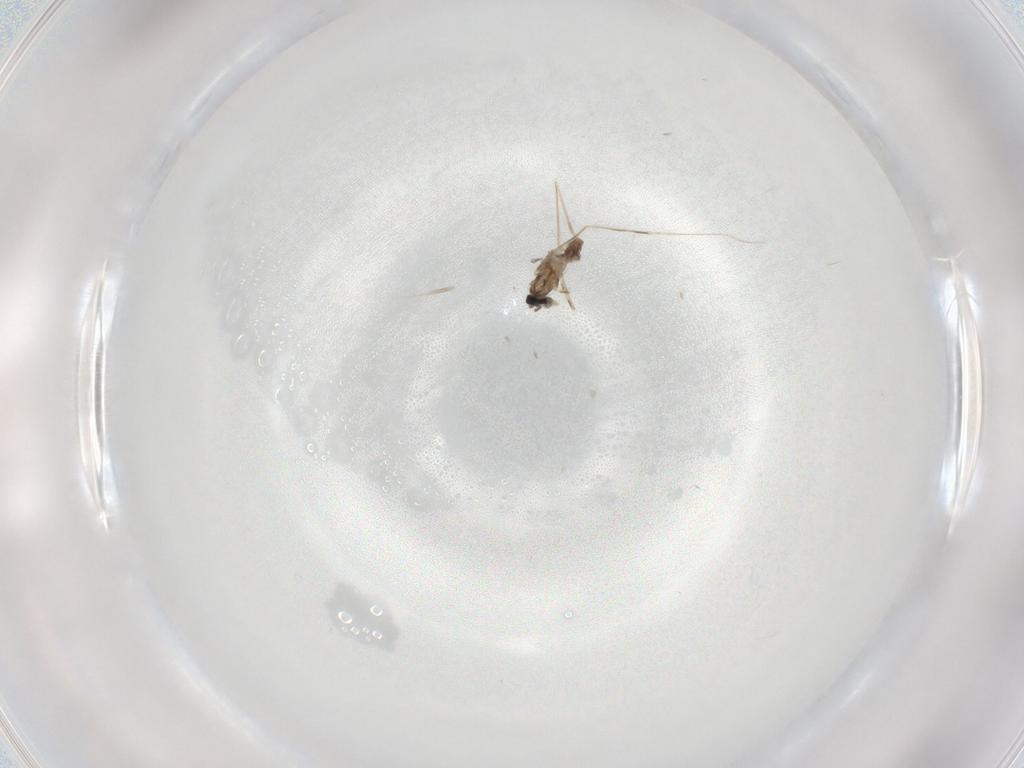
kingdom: Animalia
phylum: Arthropoda
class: Insecta
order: Diptera
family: Cecidomyiidae
